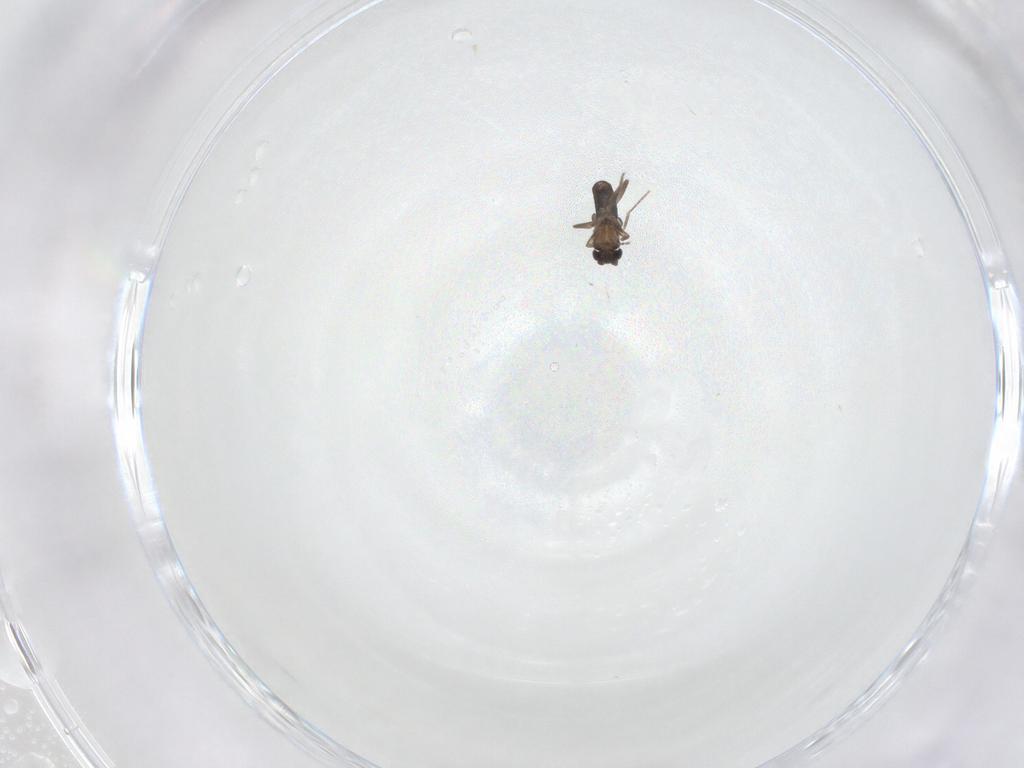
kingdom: Animalia
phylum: Arthropoda
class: Insecta
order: Diptera
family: Phoridae
